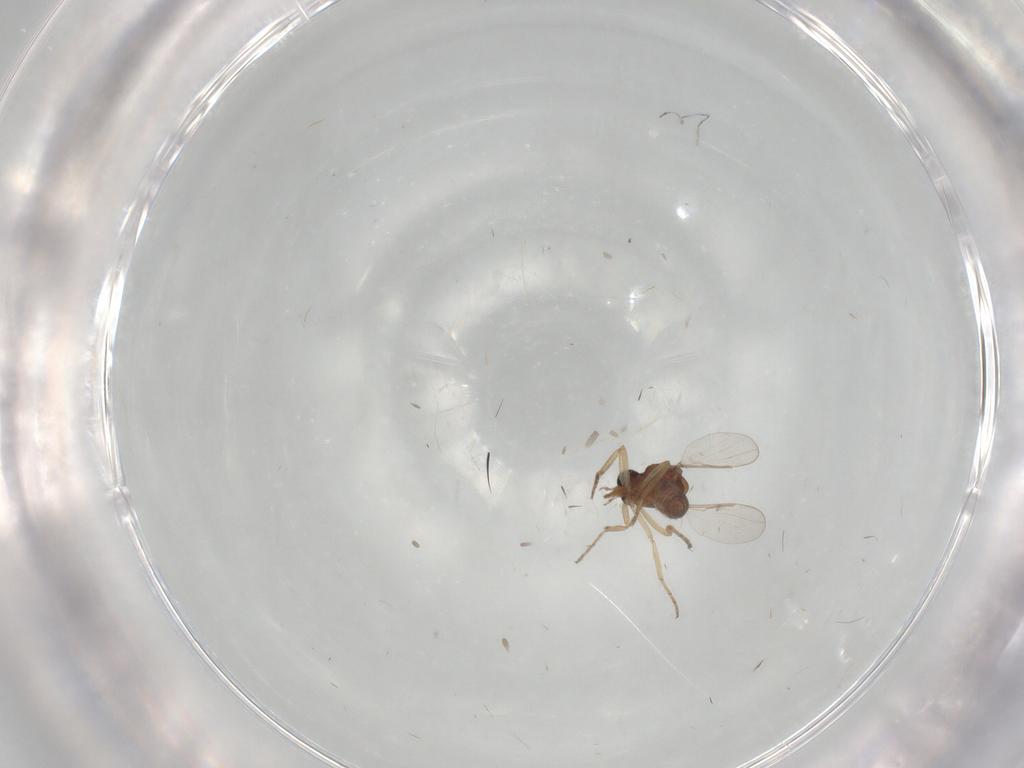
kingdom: Animalia
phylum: Arthropoda
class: Insecta
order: Diptera
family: Ceratopogonidae
